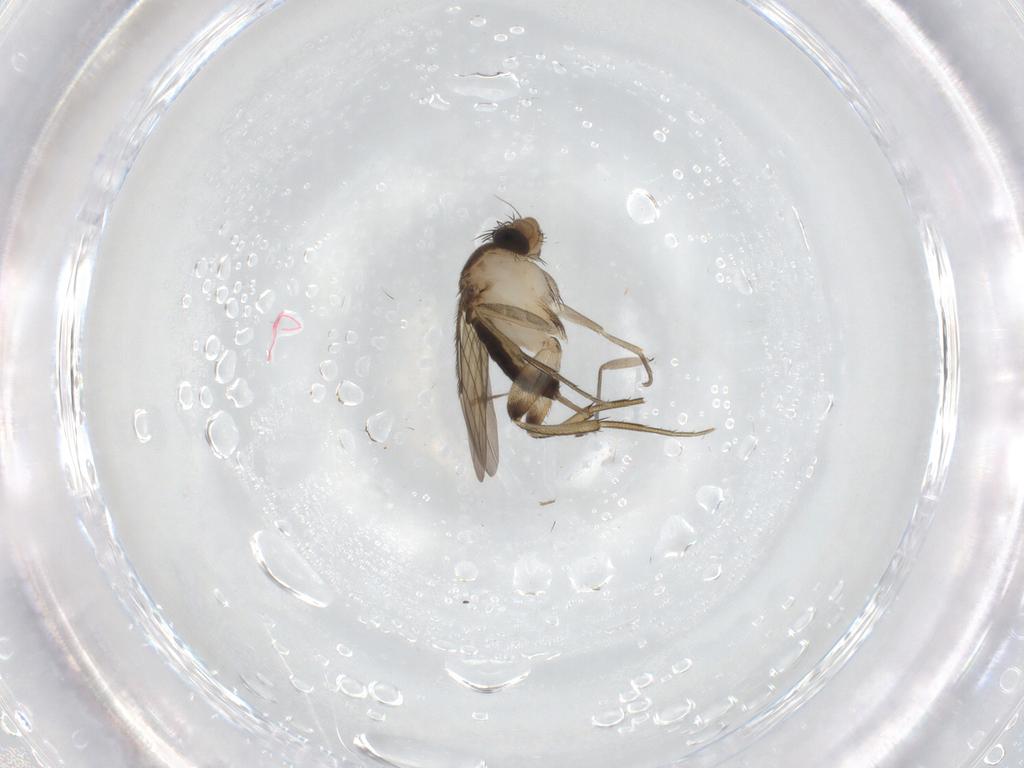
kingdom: Animalia
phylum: Arthropoda
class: Insecta
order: Diptera
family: Phoridae
